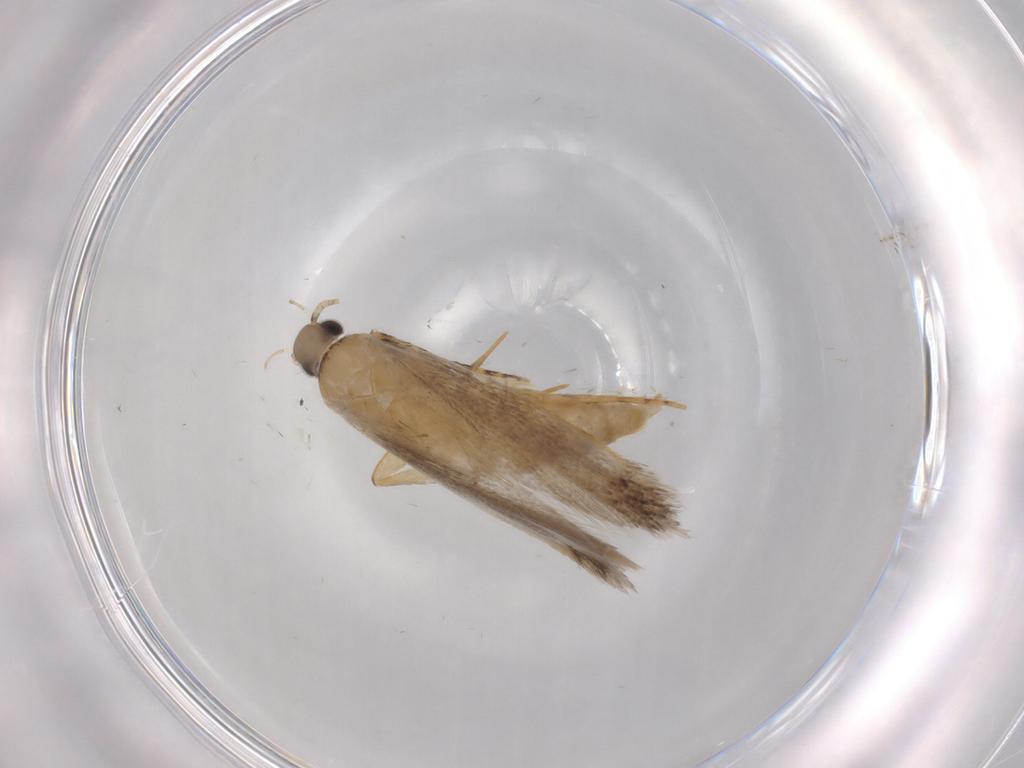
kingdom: Animalia
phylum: Arthropoda
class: Insecta
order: Lepidoptera
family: Autostichidae
